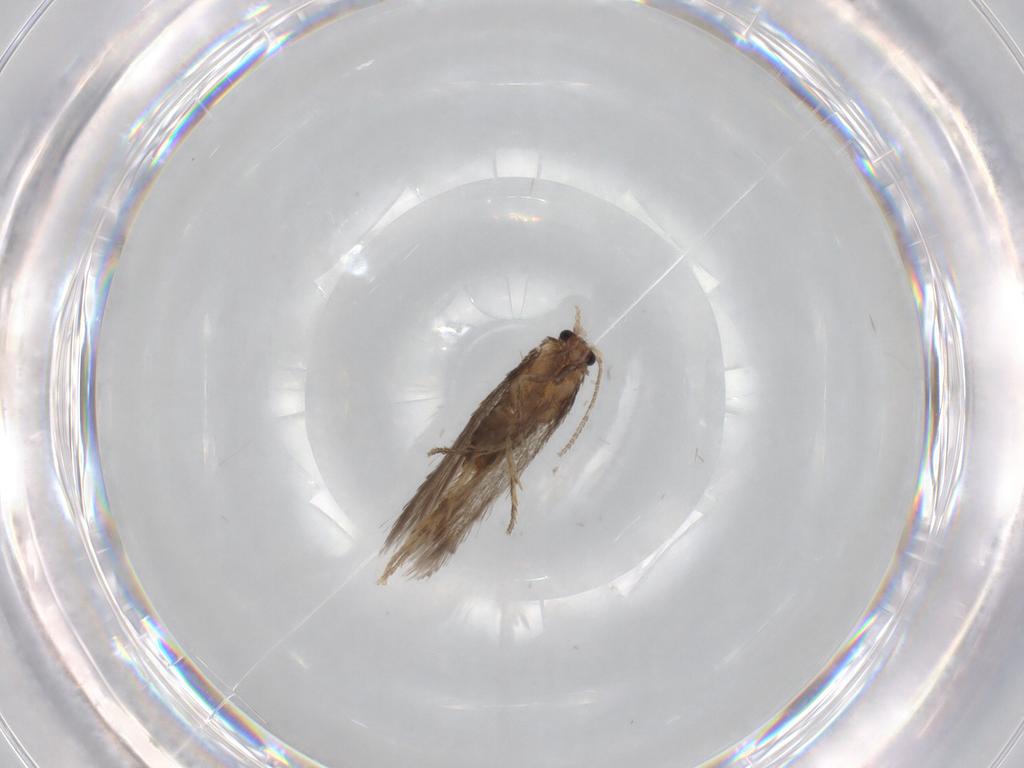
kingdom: Animalia
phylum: Arthropoda
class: Insecta
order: Lepidoptera
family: Nepticulidae
